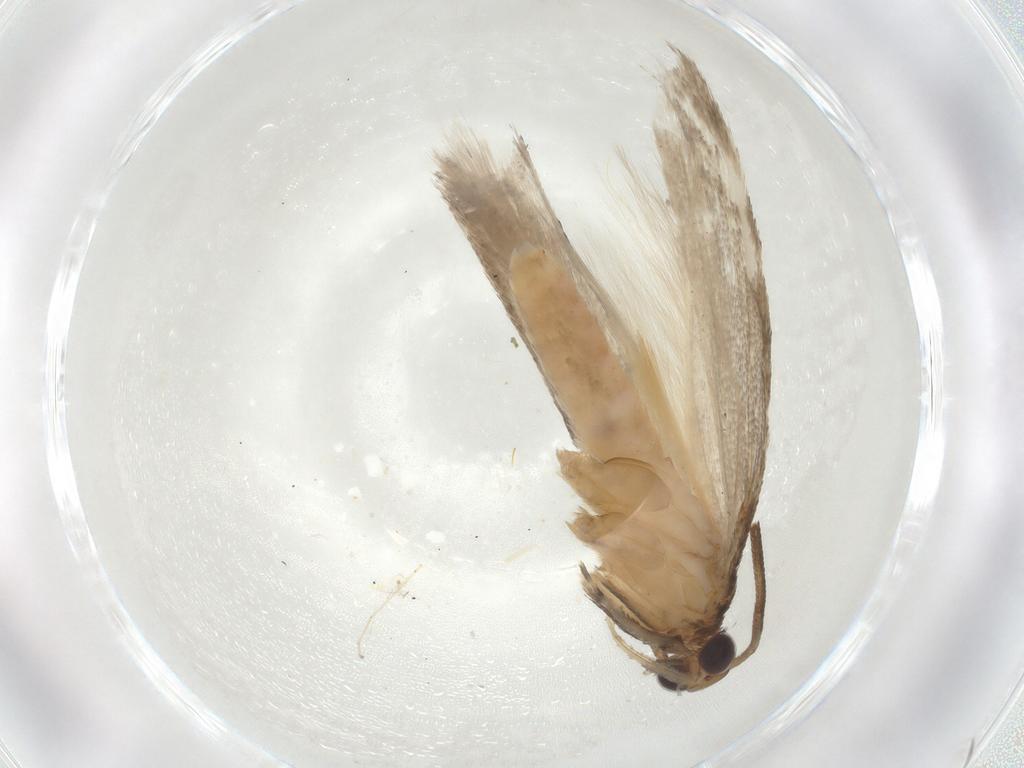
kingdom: Animalia
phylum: Arthropoda
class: Insecta
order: Lepidoptera
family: Gelechiidae
